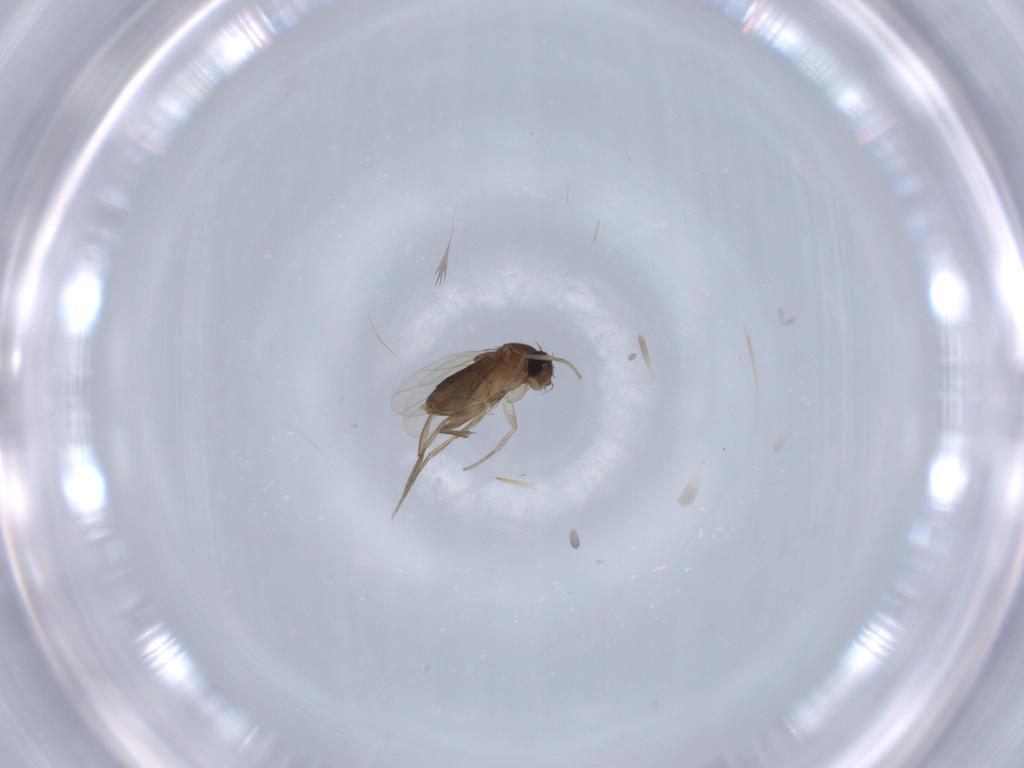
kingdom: Animalia
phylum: Arthropoda
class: Insecta
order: Diptera
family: Phoridae
